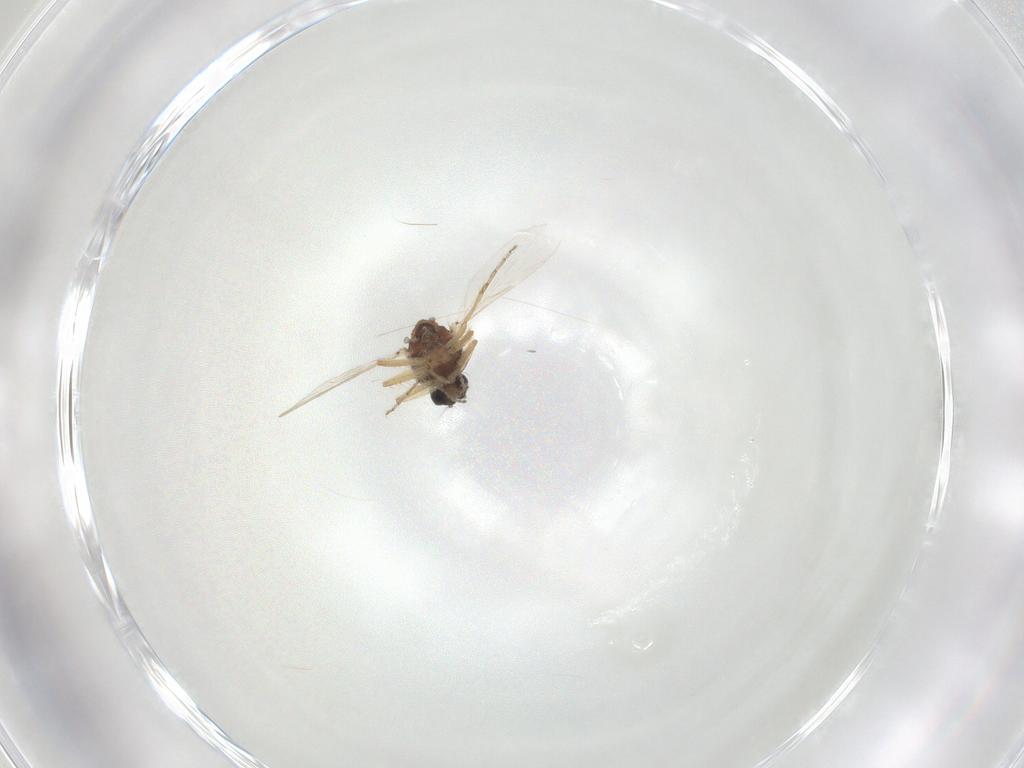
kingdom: Animalia
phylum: Arthropoda
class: Insecta
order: Diptera
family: Ceratopogonidae
